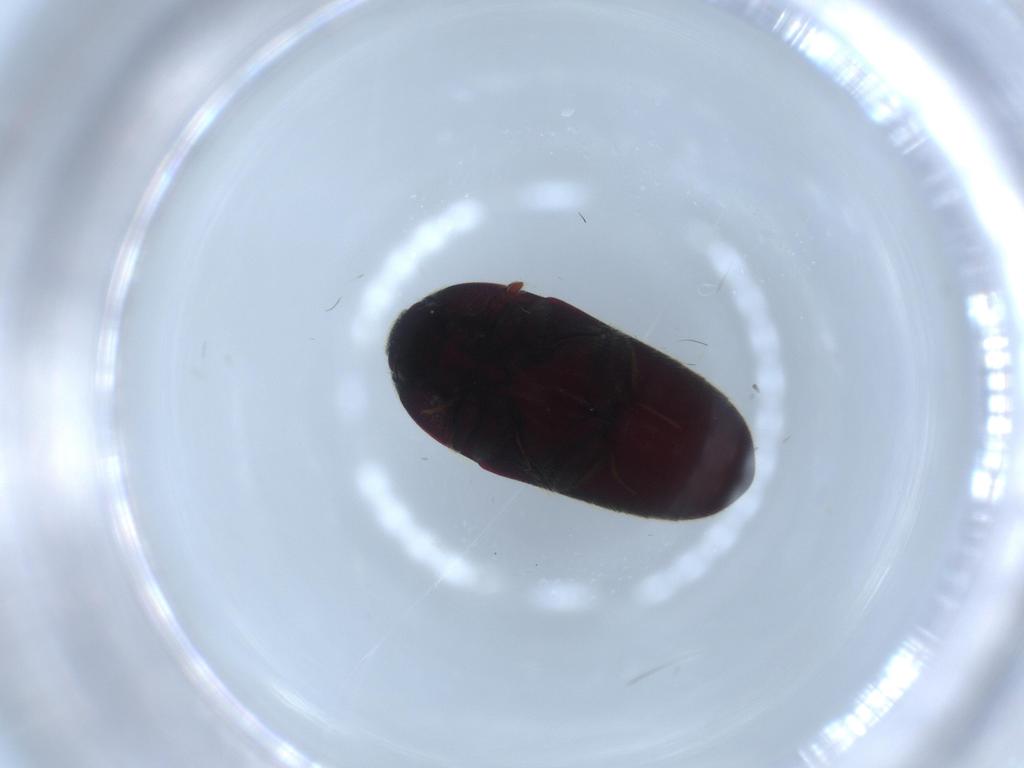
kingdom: Animalia
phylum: Arthropoda
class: Insecta
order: Coleoptera
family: Throscidae
